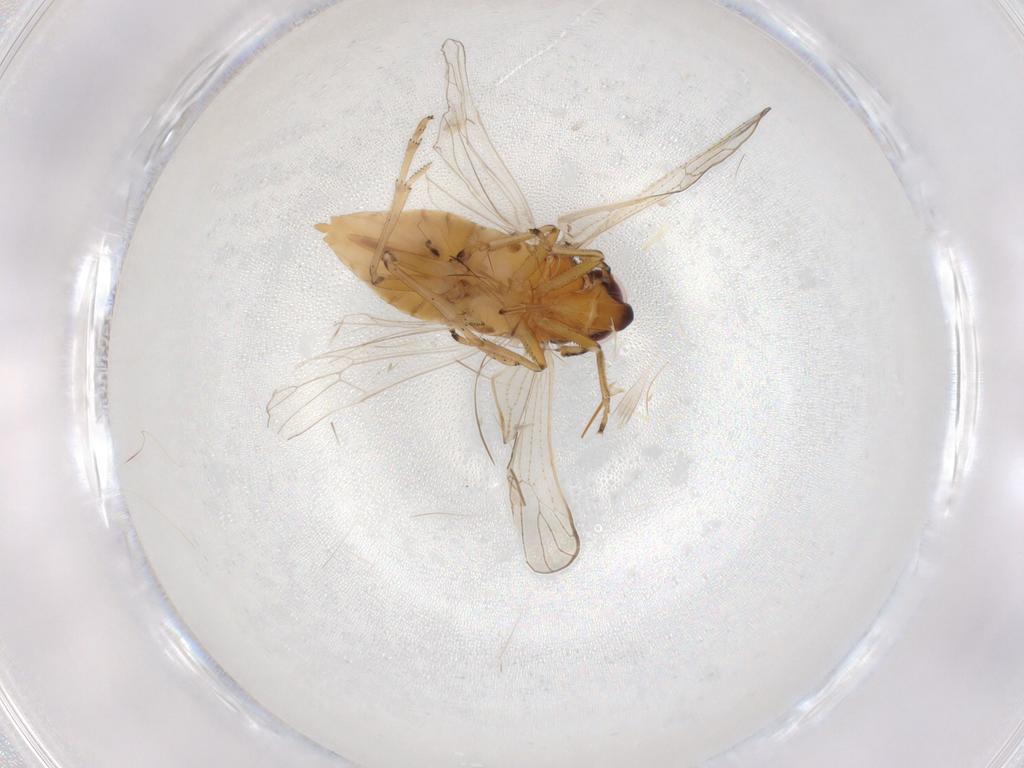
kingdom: Animalia
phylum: Arthropoda
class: Insecta
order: Hemiptera
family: Delphacidae
